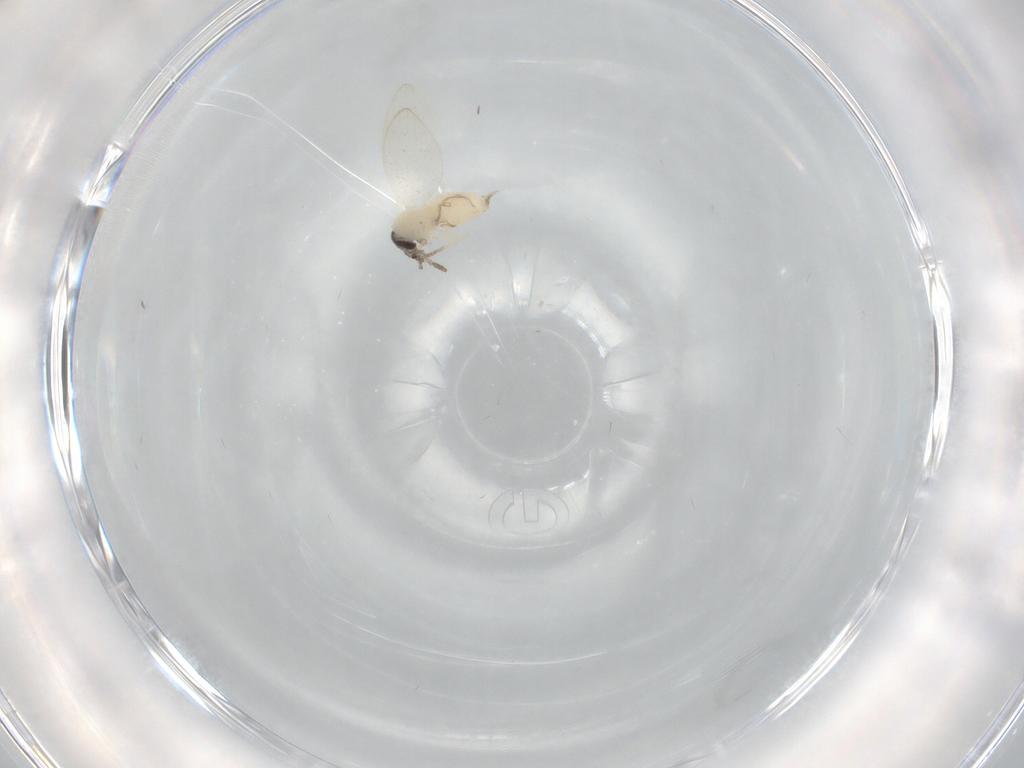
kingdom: Animalia
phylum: Arthropoda
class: Insecta
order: Diptera
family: Psychodidae
